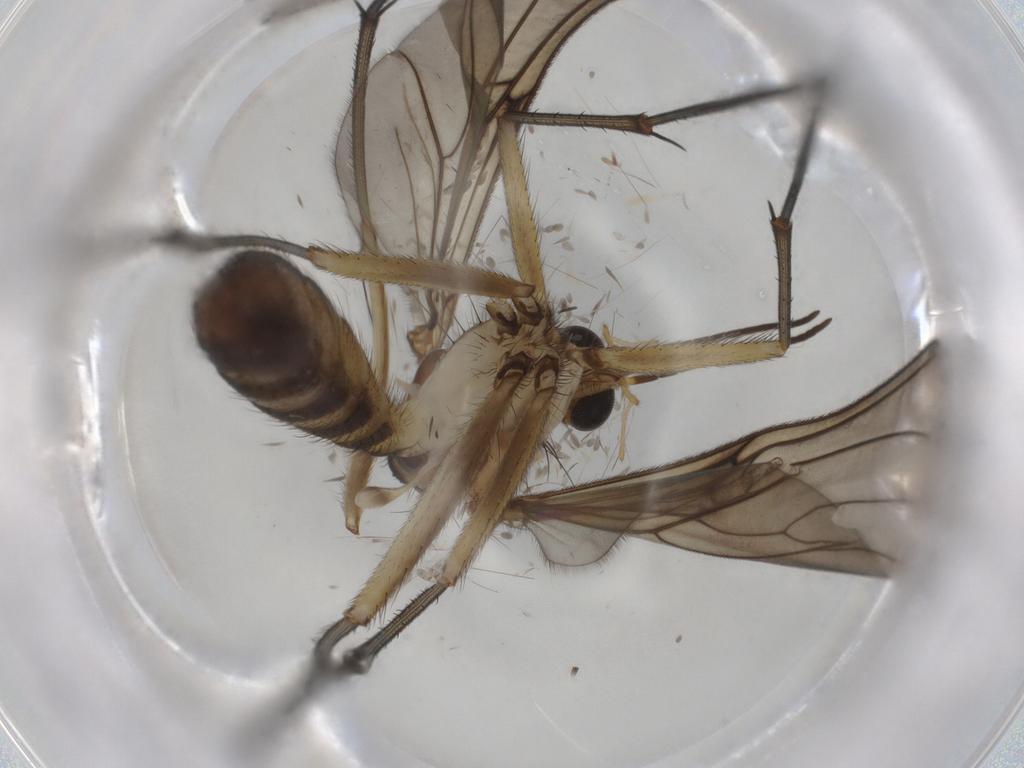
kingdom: Animalia
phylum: Arthropoda
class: Insecta
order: Diptera
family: Mycetophilidae
